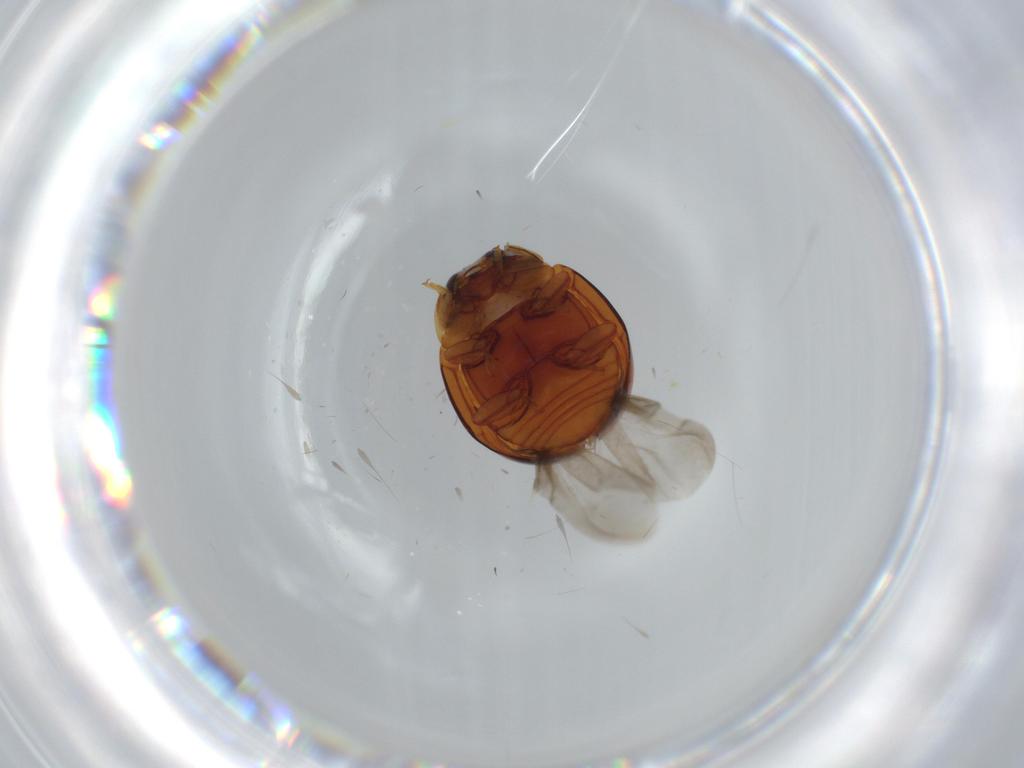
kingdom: Animalia
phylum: Arthropoda
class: Insecta
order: Coleoptera
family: Coccinellidae
